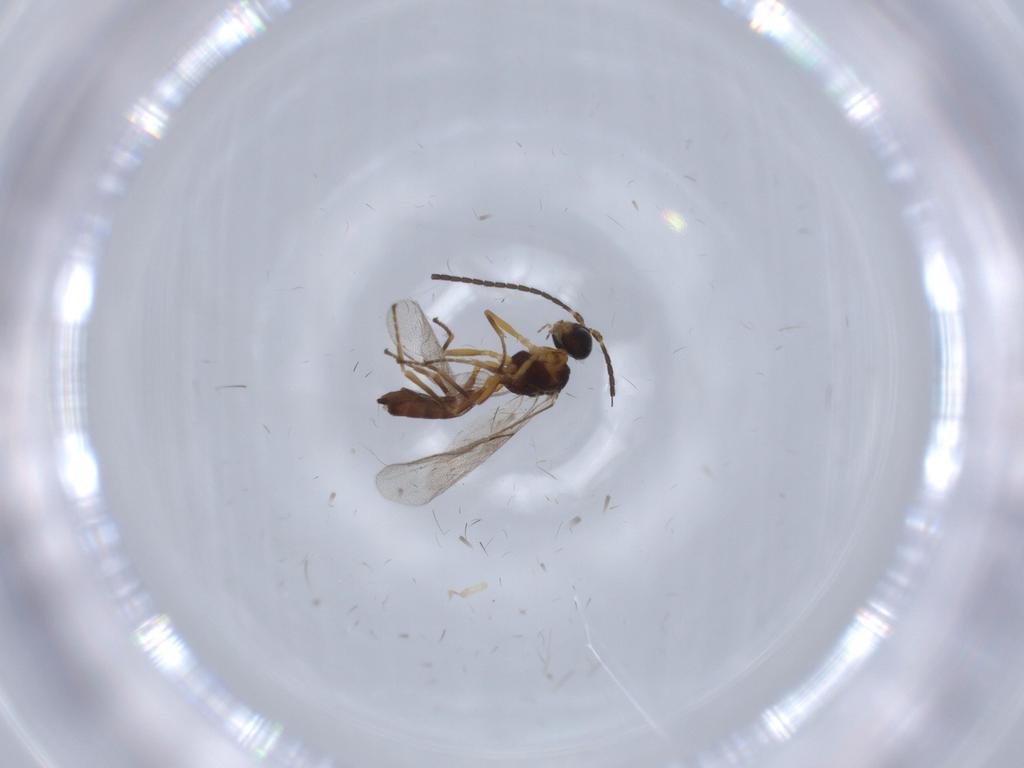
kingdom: Animalia
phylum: Arthropoda
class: Insecta
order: Hymenoptera
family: Braconidae
